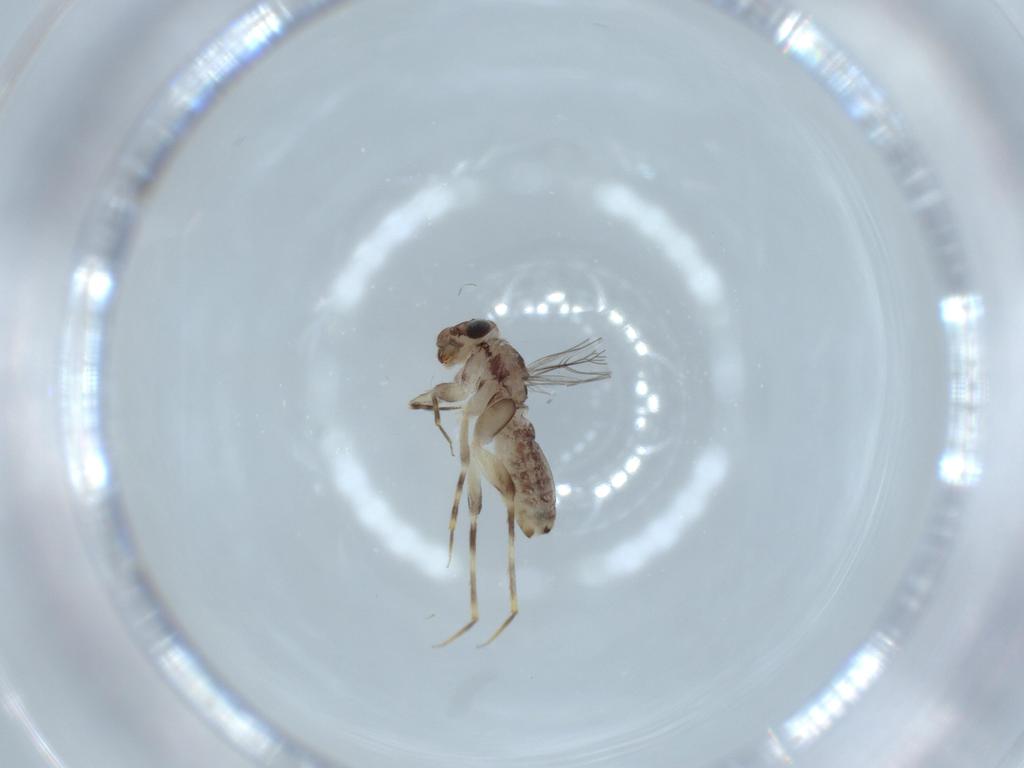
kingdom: Animalia
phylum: Arthropoda
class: Insecta
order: Psocodea
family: Lepidopsocidae
